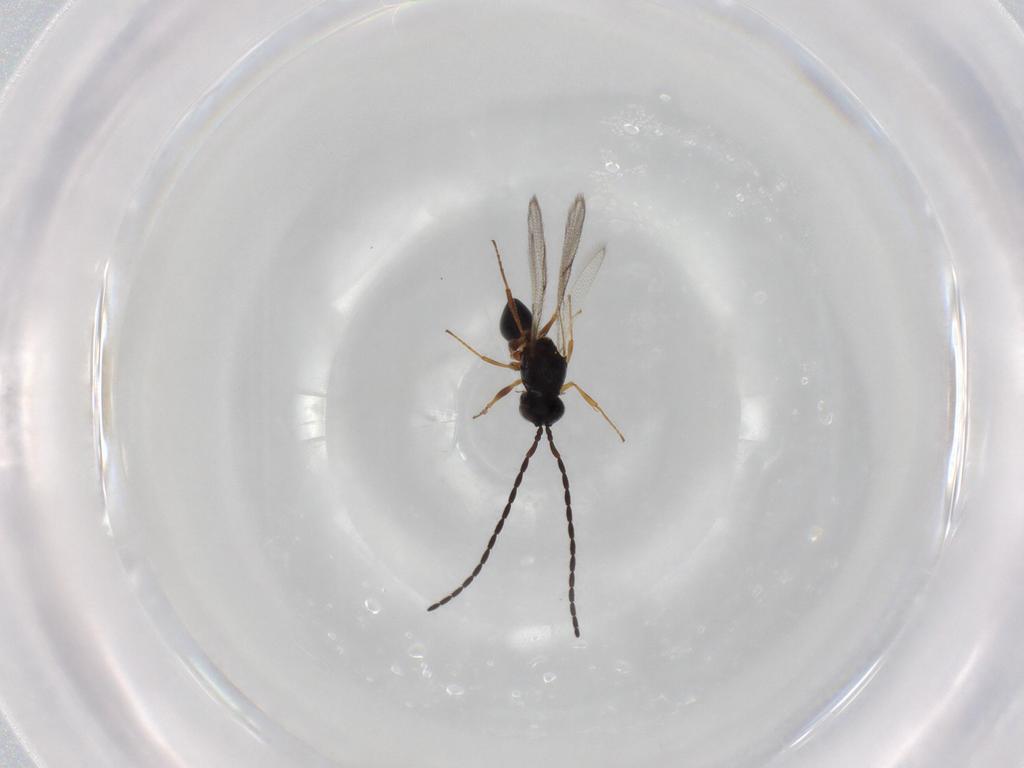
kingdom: Animalia
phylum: Arthropoda
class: Insecta
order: Hymenoptera
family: Figitidae
